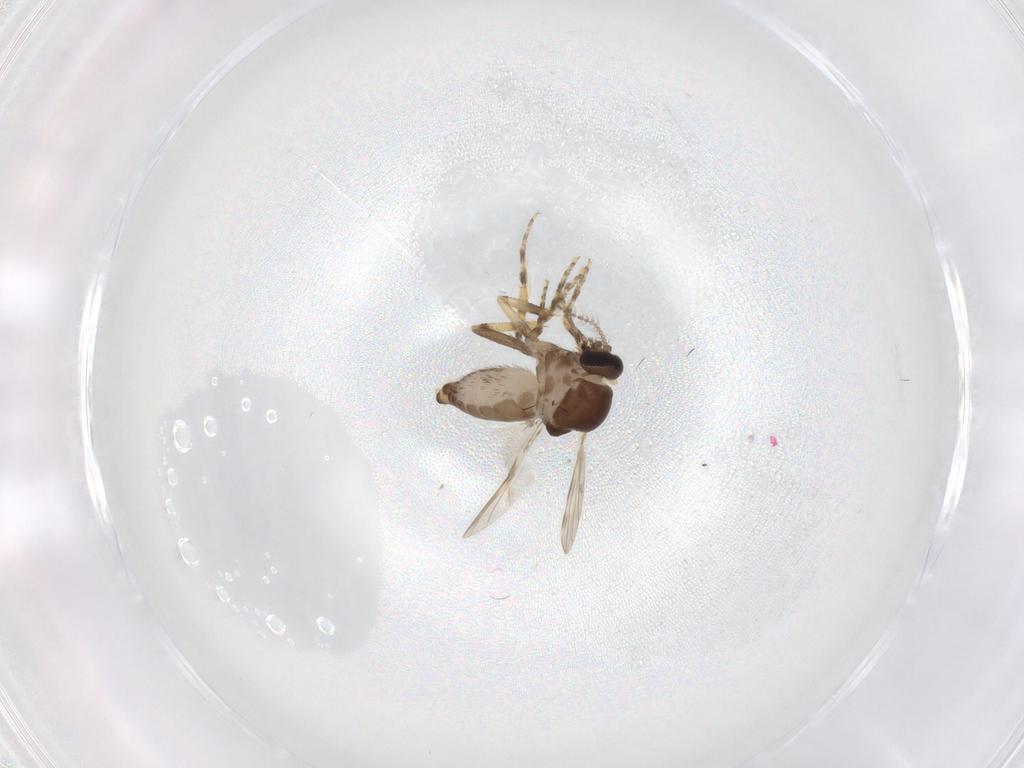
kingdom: Animalia
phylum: Arthropoda
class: Insecta
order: Diptera
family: Ceratopogonidae
